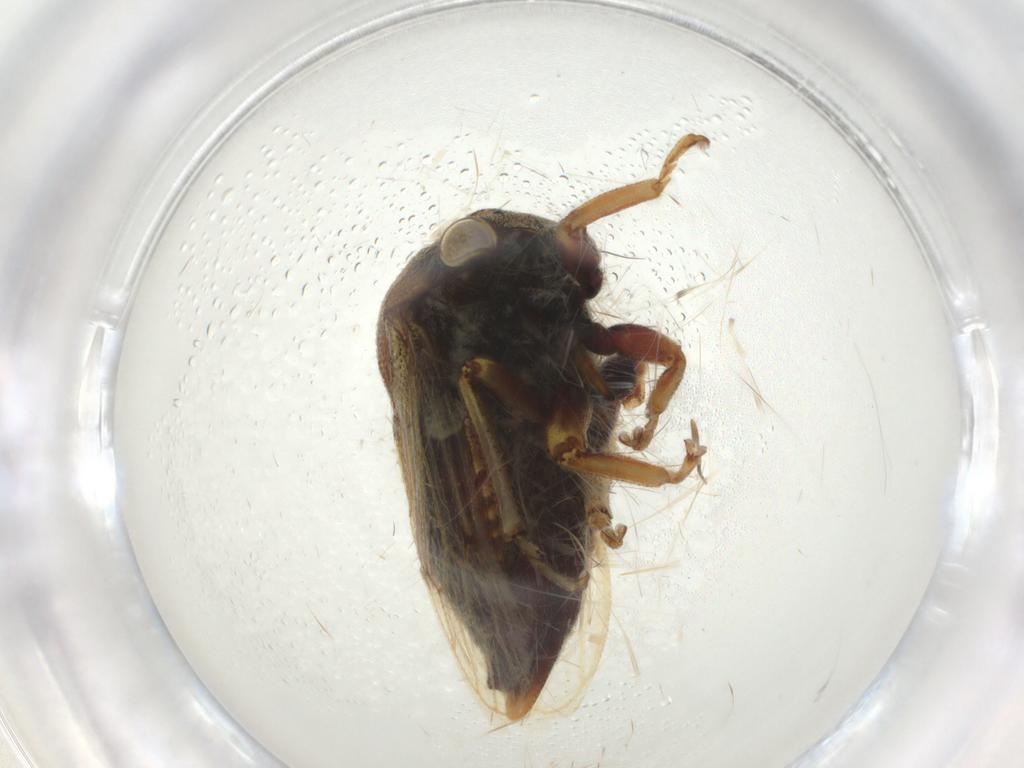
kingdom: Animalia
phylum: Arthropoda
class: Insecta
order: Hemiptera
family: Membracidae
